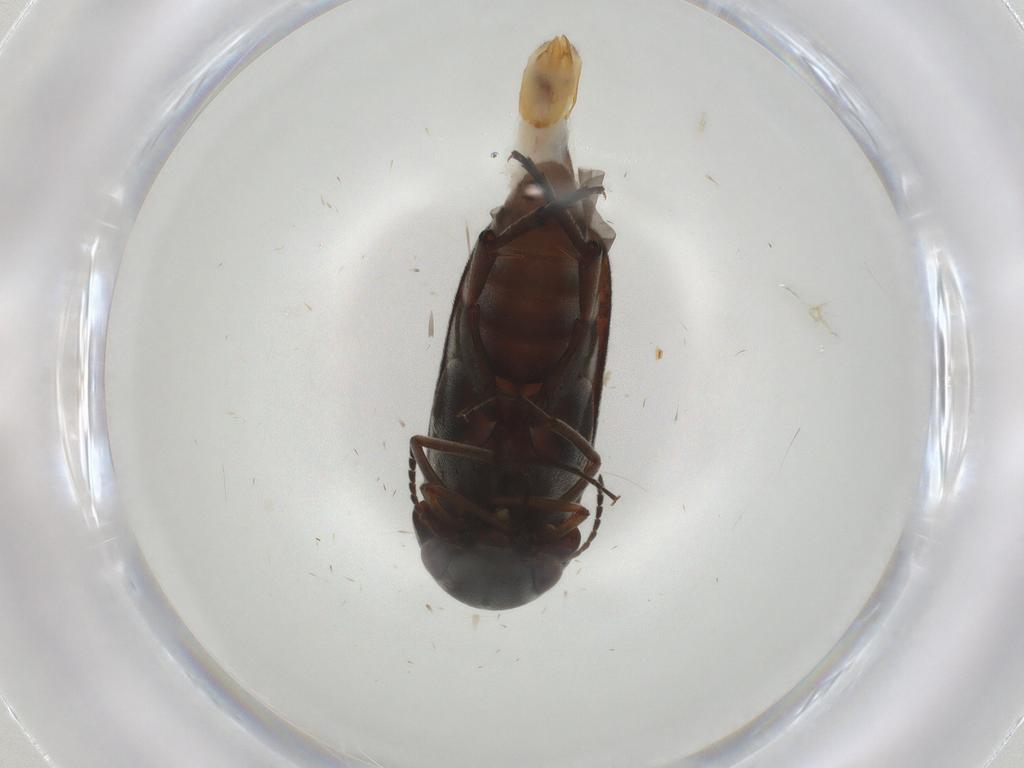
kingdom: Animalia
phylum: Arthropoda
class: Insecta
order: Coleoptera
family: Mordellidae
